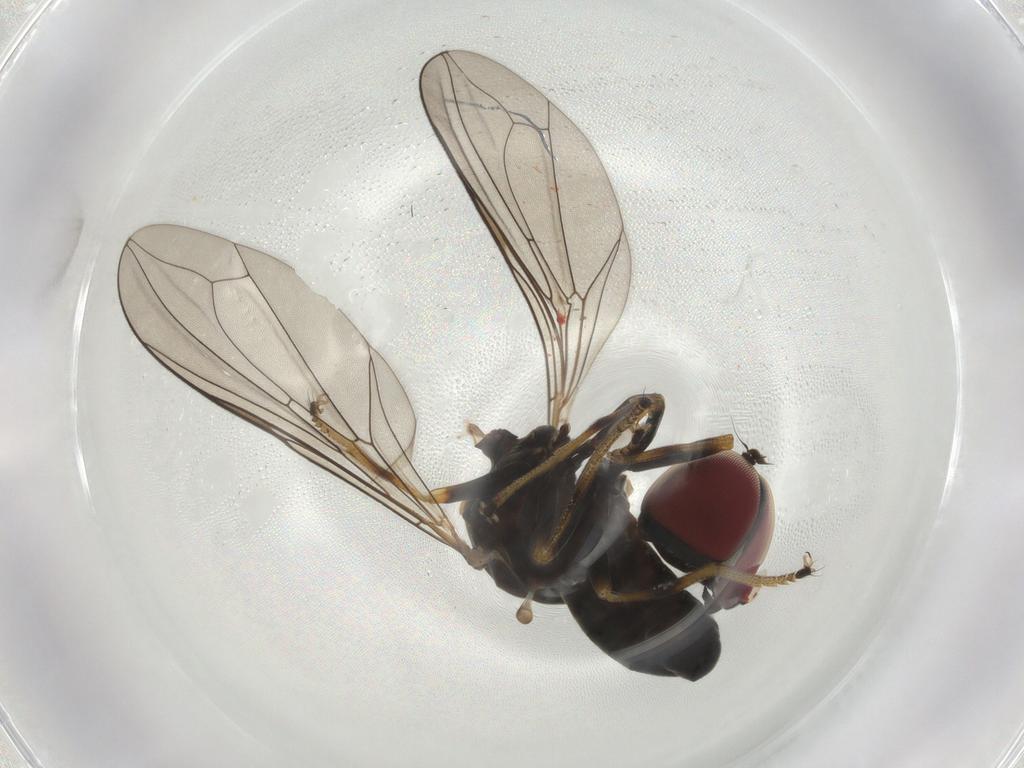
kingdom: Animalia
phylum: Arthropoda
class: Insecta
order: Diptera
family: Pipunculidae
